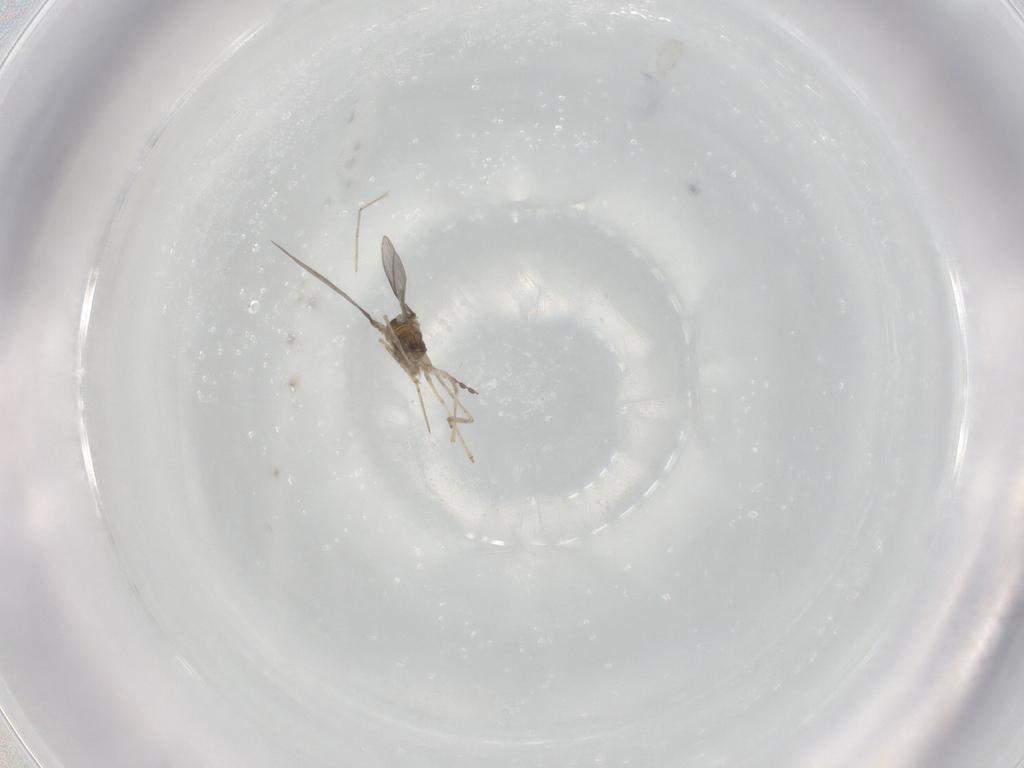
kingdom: Animalia
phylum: Arthropoda
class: Insecta
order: Diptera
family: Cecidomyiidae
